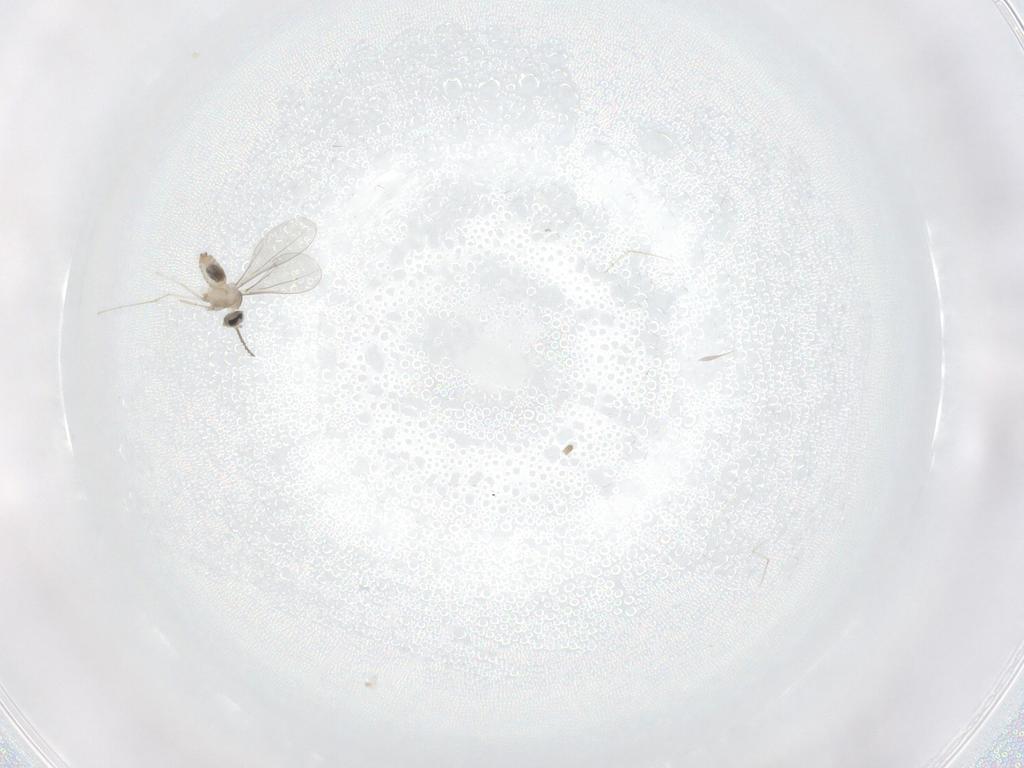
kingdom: Animalia
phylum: Arthropoda
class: Insecta
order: Diptera
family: Cecidomyiidae
